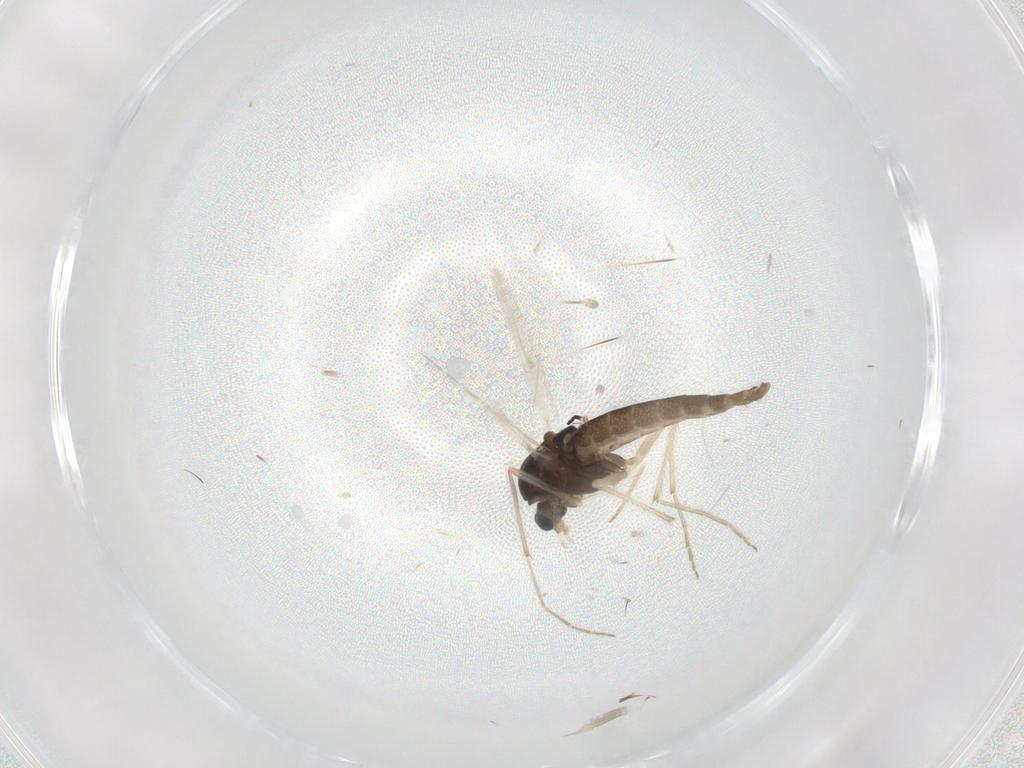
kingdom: Animalia
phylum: Arthropoda
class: Insecta
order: Diptera
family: Chironomidae
